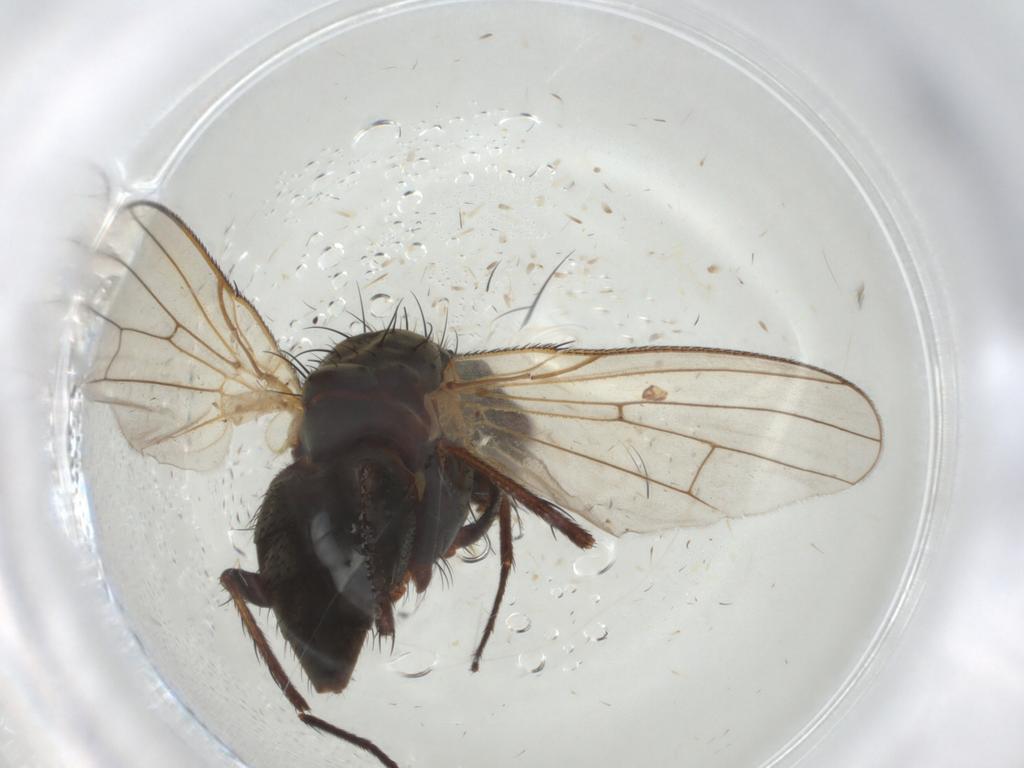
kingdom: Animalia
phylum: Arthropoda
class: Insecta
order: Diptera
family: Anthomyiidae
